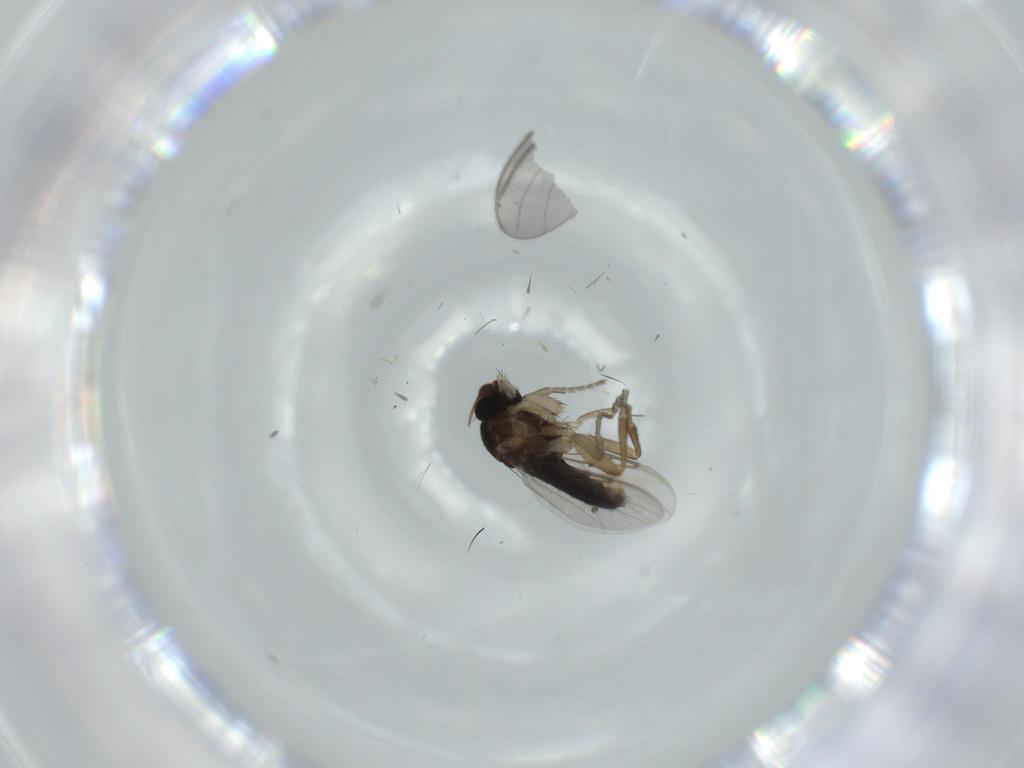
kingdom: Animalia
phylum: Arthropoda
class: Insecta
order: Diptera
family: Sciaridae
